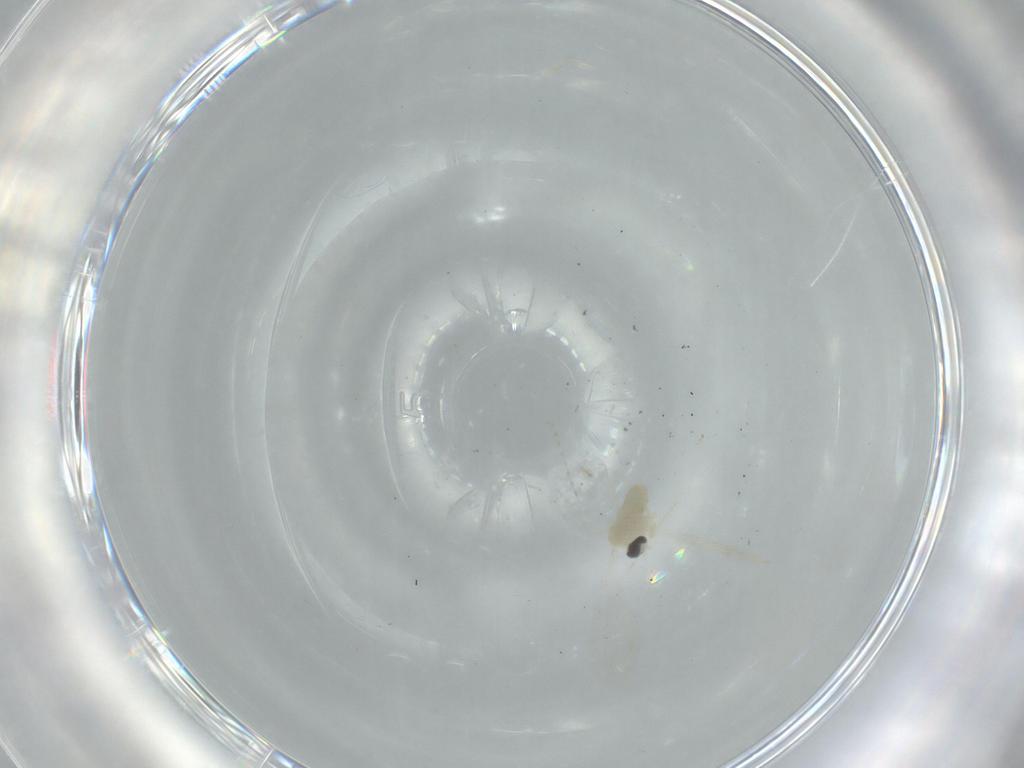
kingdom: Animalia
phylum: Arthropoda
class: Insecta
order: Diptera
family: Cecidomyiidae
